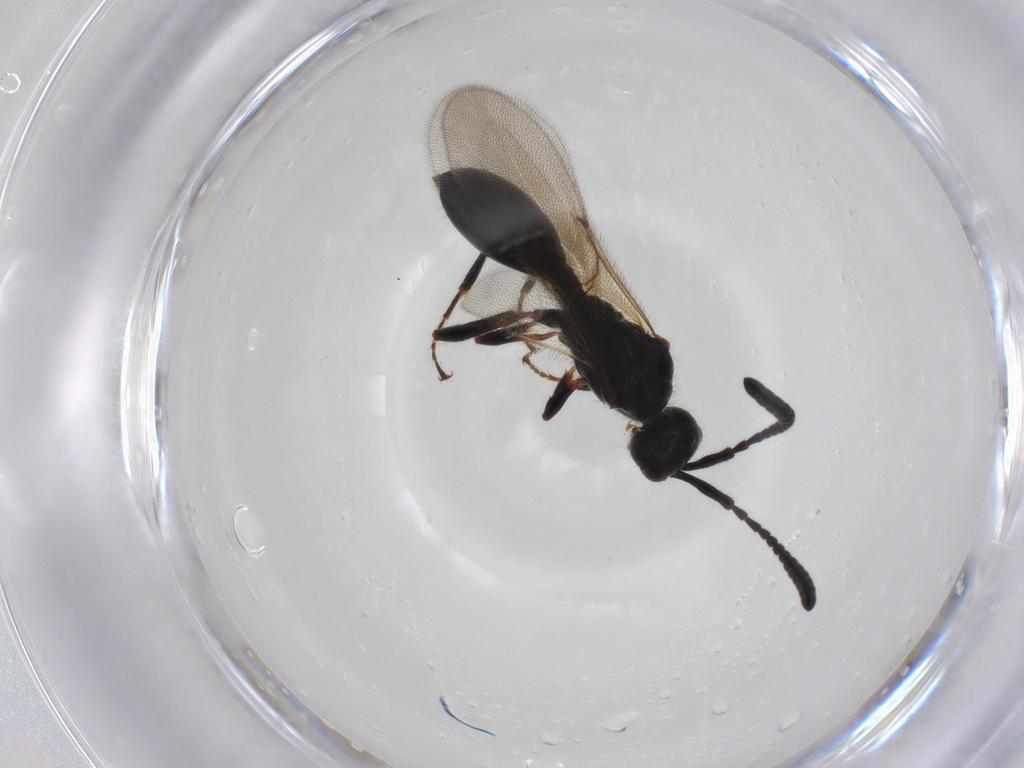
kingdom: Animalia
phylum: Arthropoda
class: Insecta
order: Hymenoptera
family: Diapriidae
